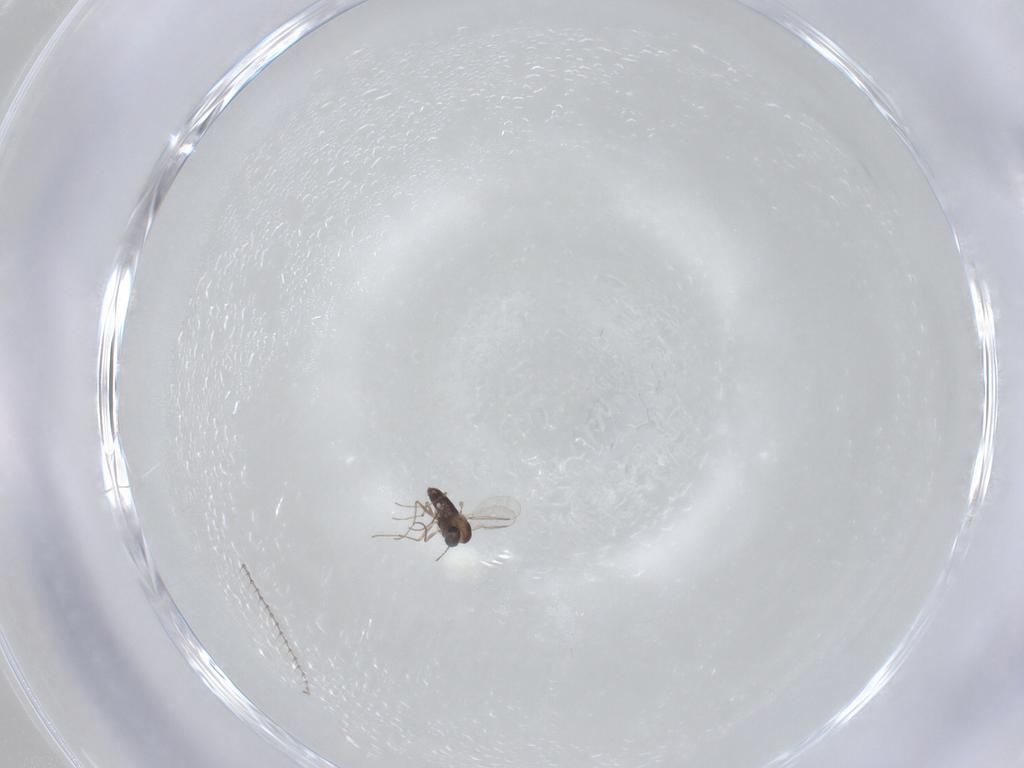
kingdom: Animalia
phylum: Arthropoda
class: Insecta
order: Diptera
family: Cecidomyiidae
